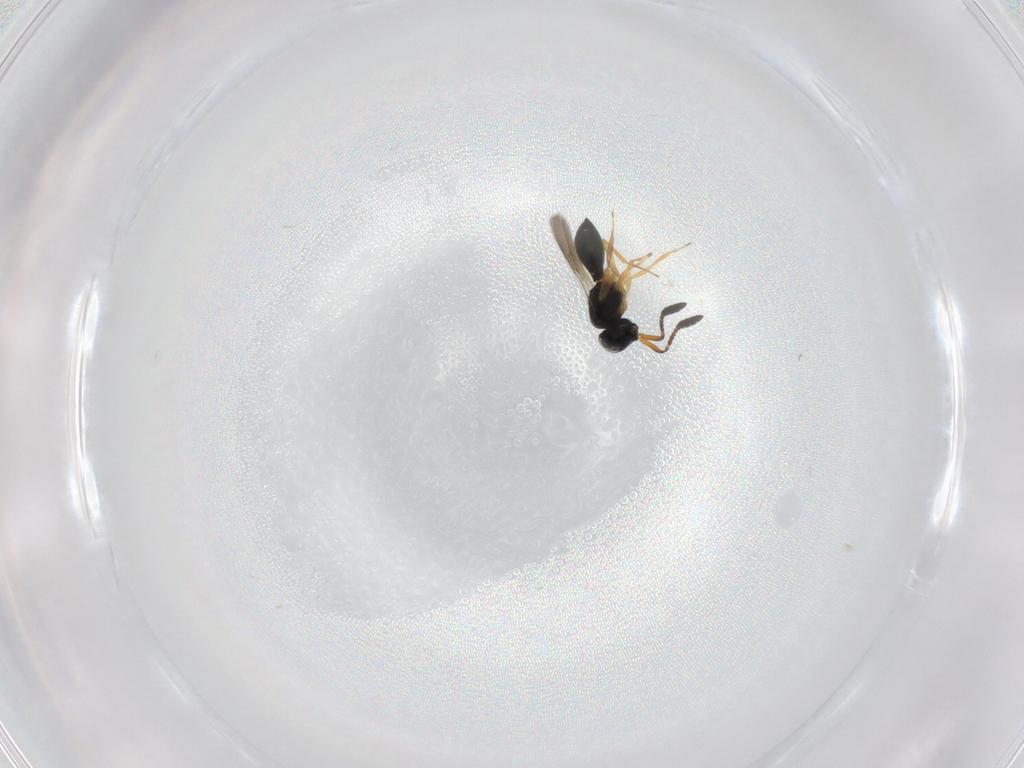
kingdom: Animalia
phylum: Arthropoda
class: Insecta
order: Hymenoptera
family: Scelionidae
